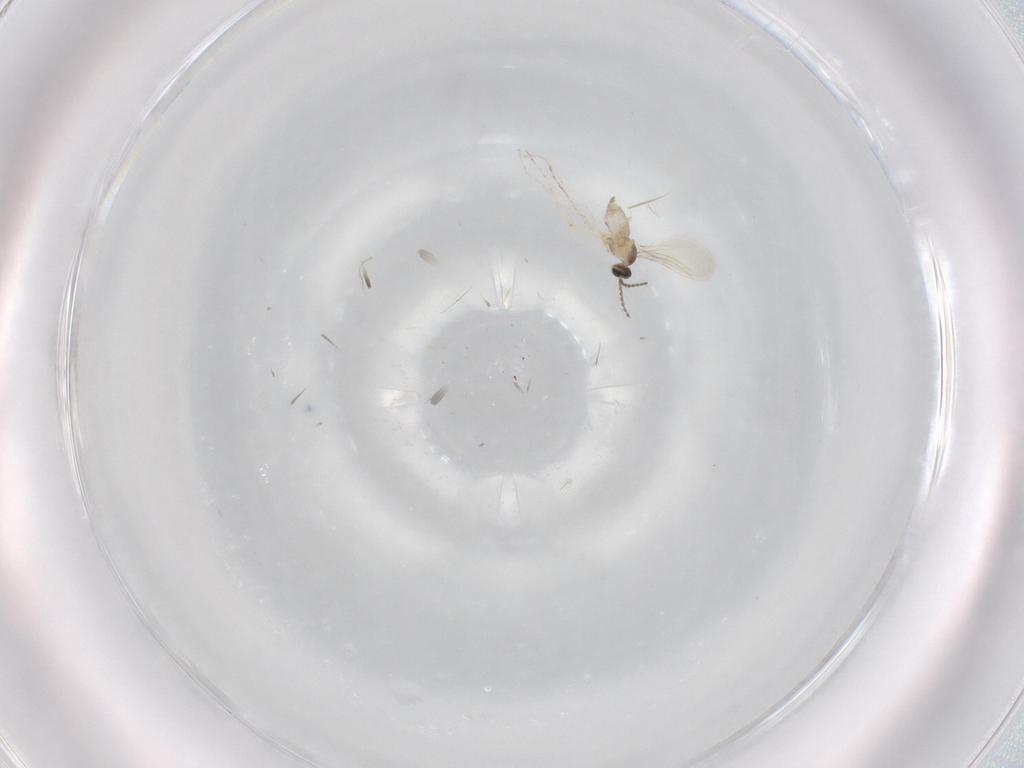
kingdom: Animalia
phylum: Arthropoda
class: Insecta
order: Diptera
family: Cecidomyiidae
